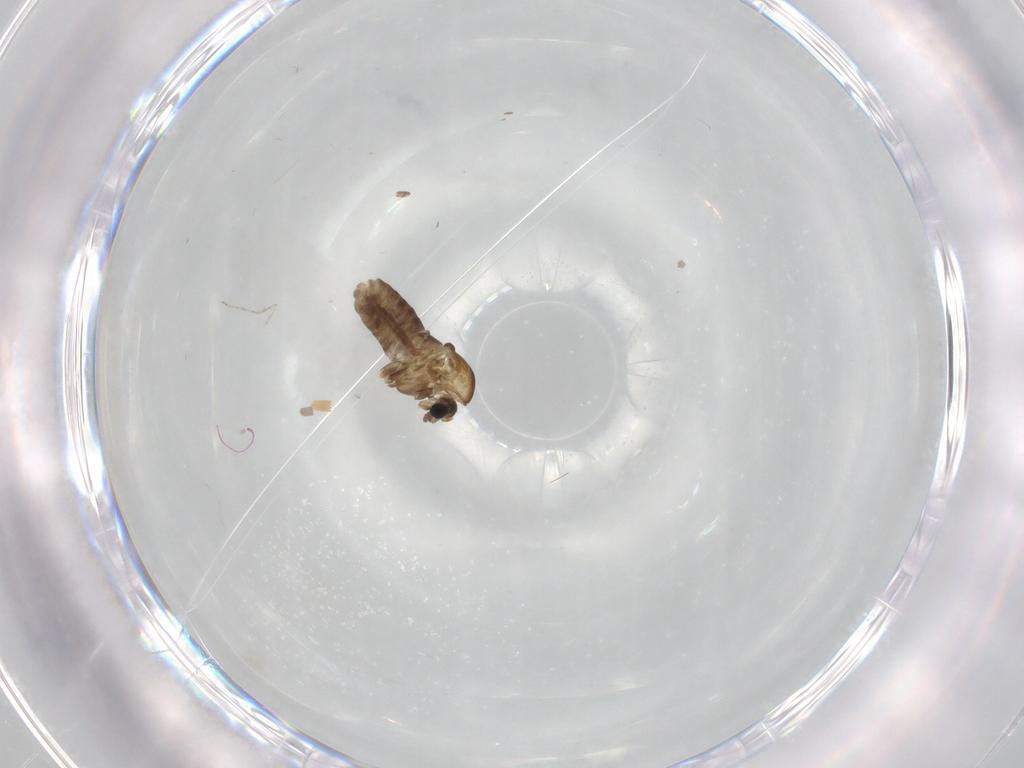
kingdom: Animalia
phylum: Arthropoda
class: Insecta
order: Diptera
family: Cecidomyiidae
